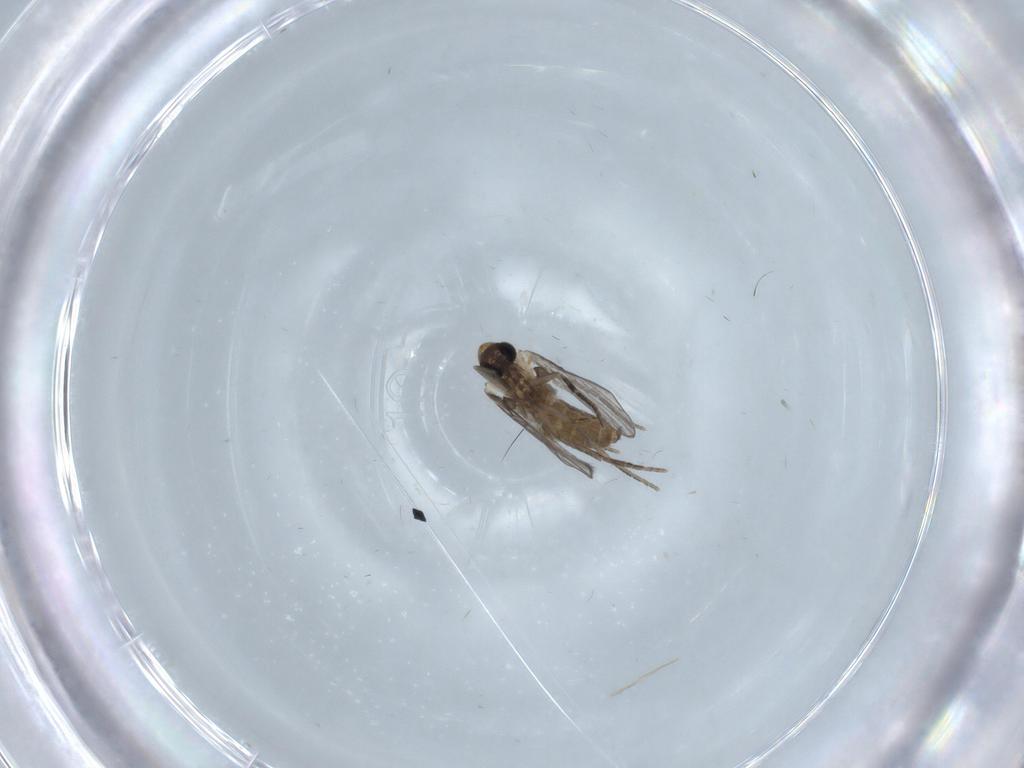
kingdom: Animalia
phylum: Arthropoda
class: Insecta
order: Diptera
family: Psychodidae
